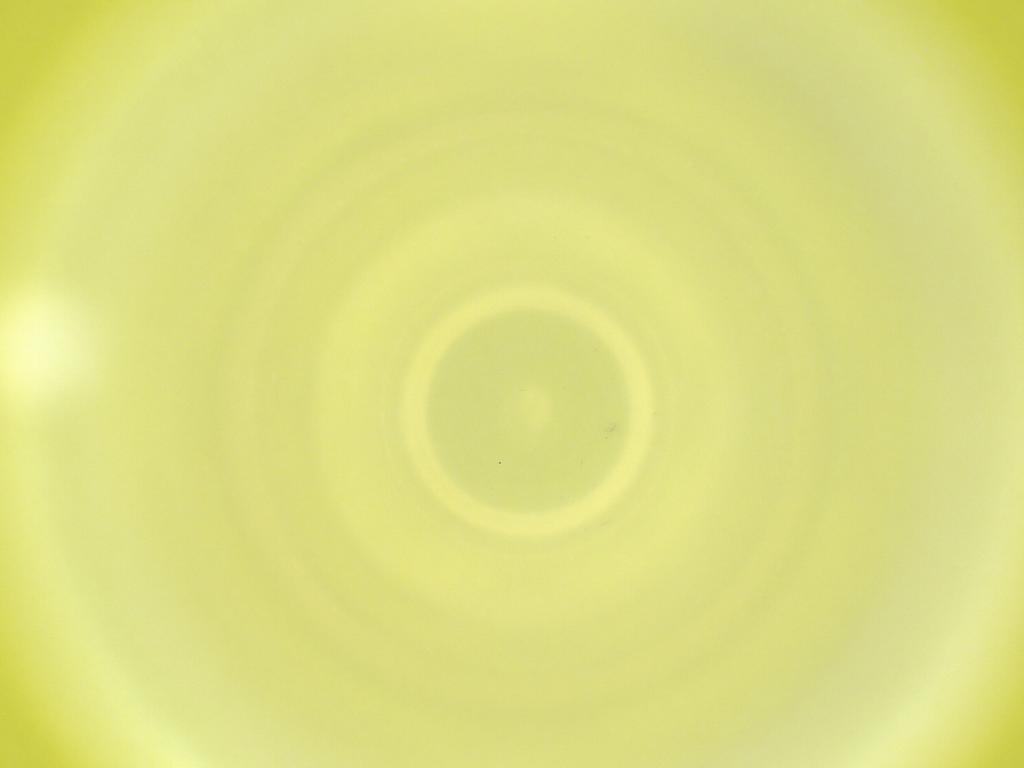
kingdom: Animalia
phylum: Arthropoda
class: Insecta
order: Diptera
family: Cecidomyiidae
